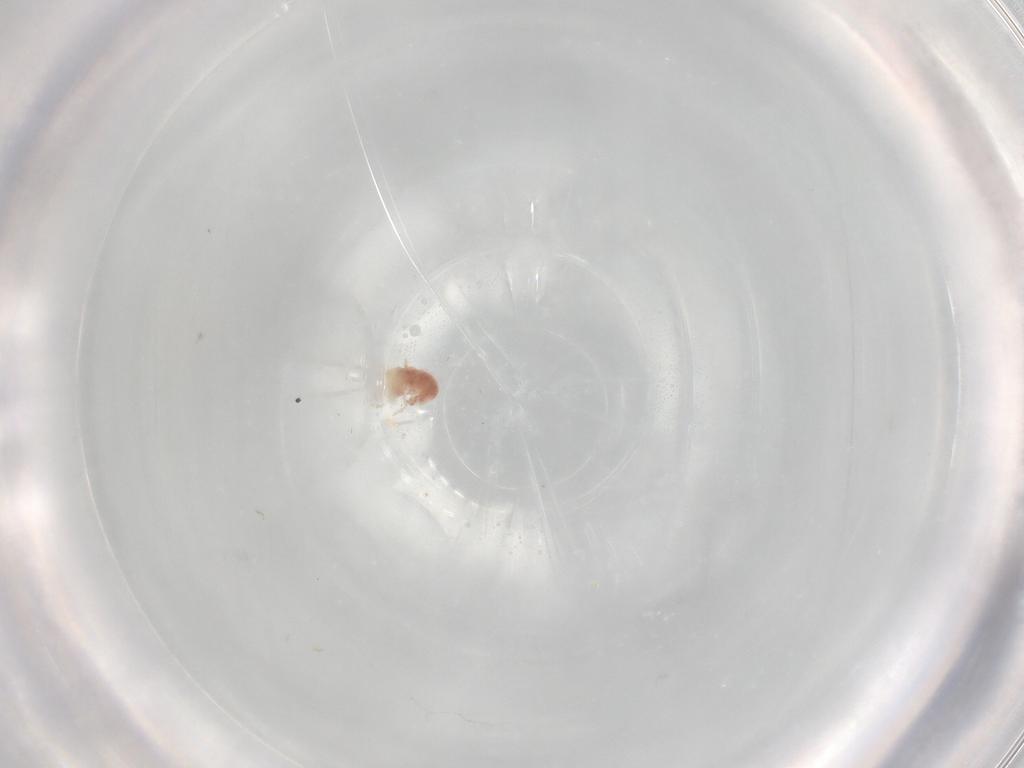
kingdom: Animalia
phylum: Arthropoda
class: Arachnida
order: Trombidiformes
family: Microtrombidiidae
